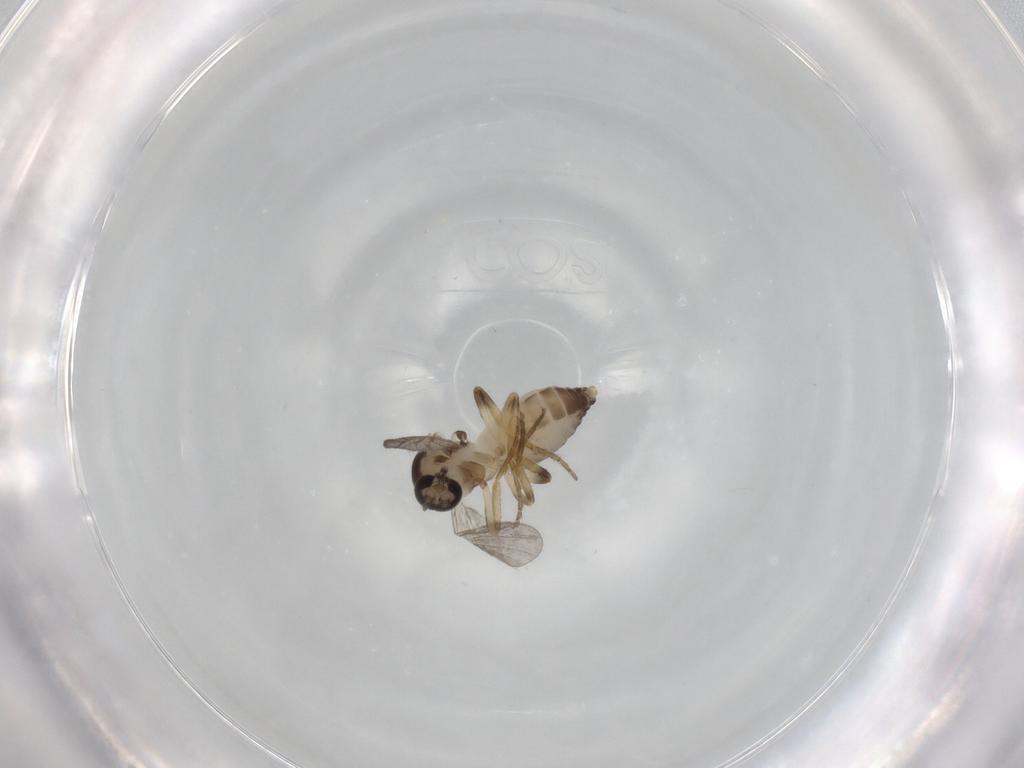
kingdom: Animalia
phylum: Arthropoda
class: Insecta
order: Diptera
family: Ceratopogonidae
